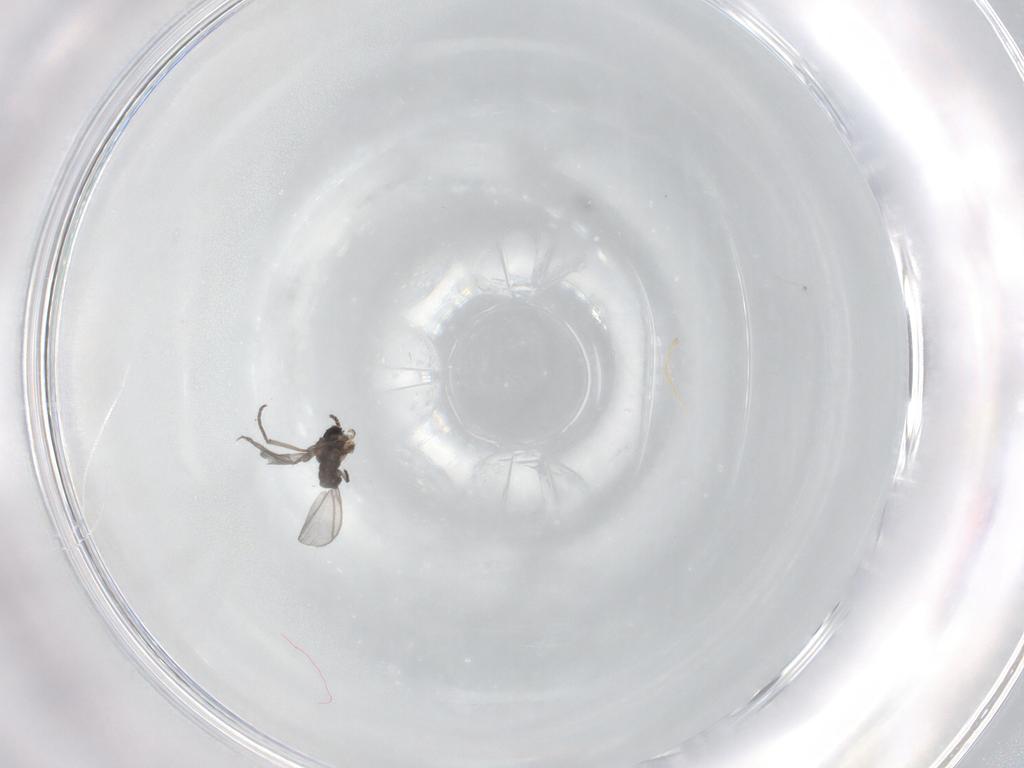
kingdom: Animalia
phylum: Arthropoda
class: Insecta
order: Diptera
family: Sciaridae
